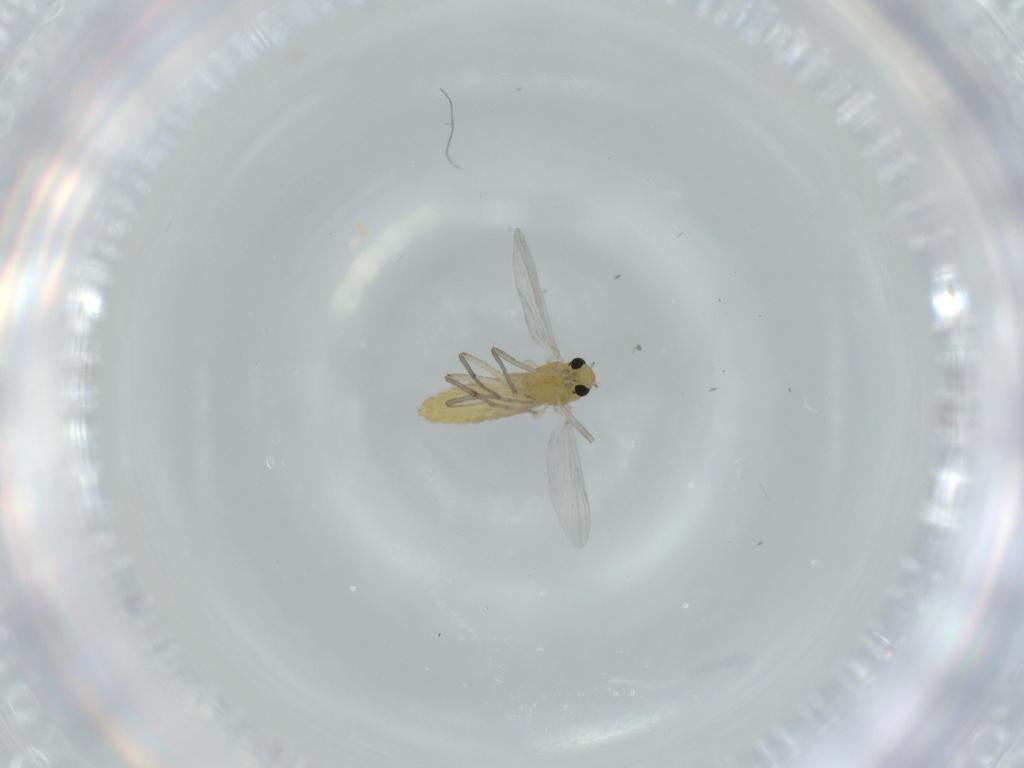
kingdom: Animalia
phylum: Arthropoda
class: Insecta
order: Diptera
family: Chironomidae
